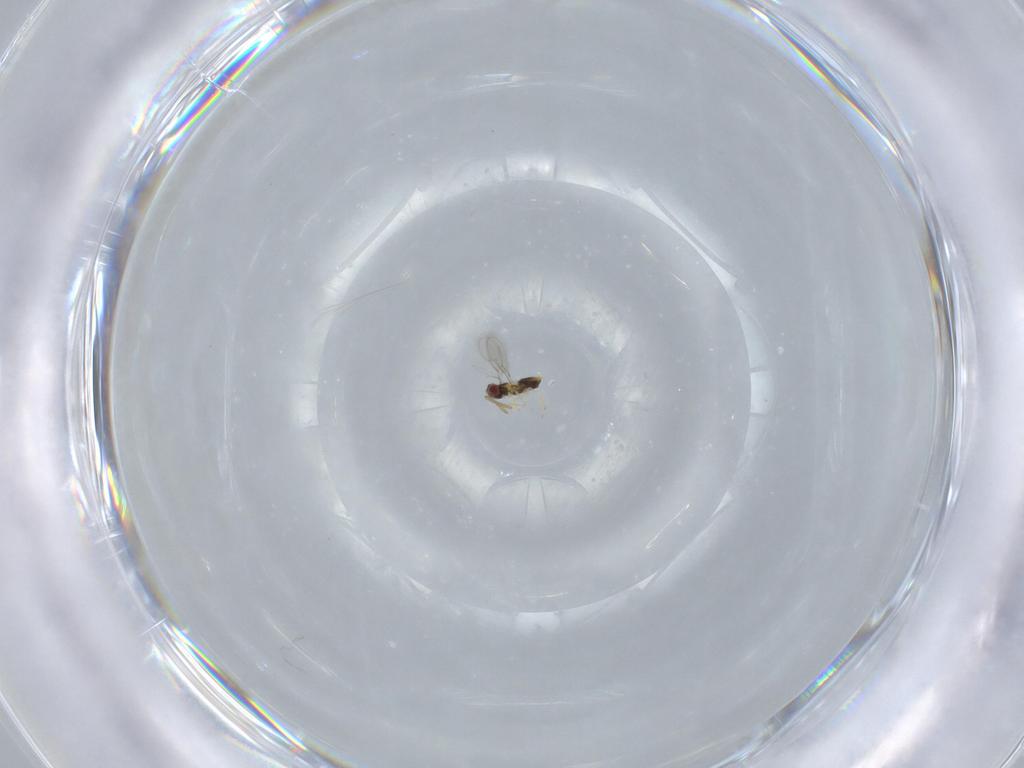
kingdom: Animalia
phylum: Arthropoda
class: Insecta
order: Hymenoptera
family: Aphelinidae
